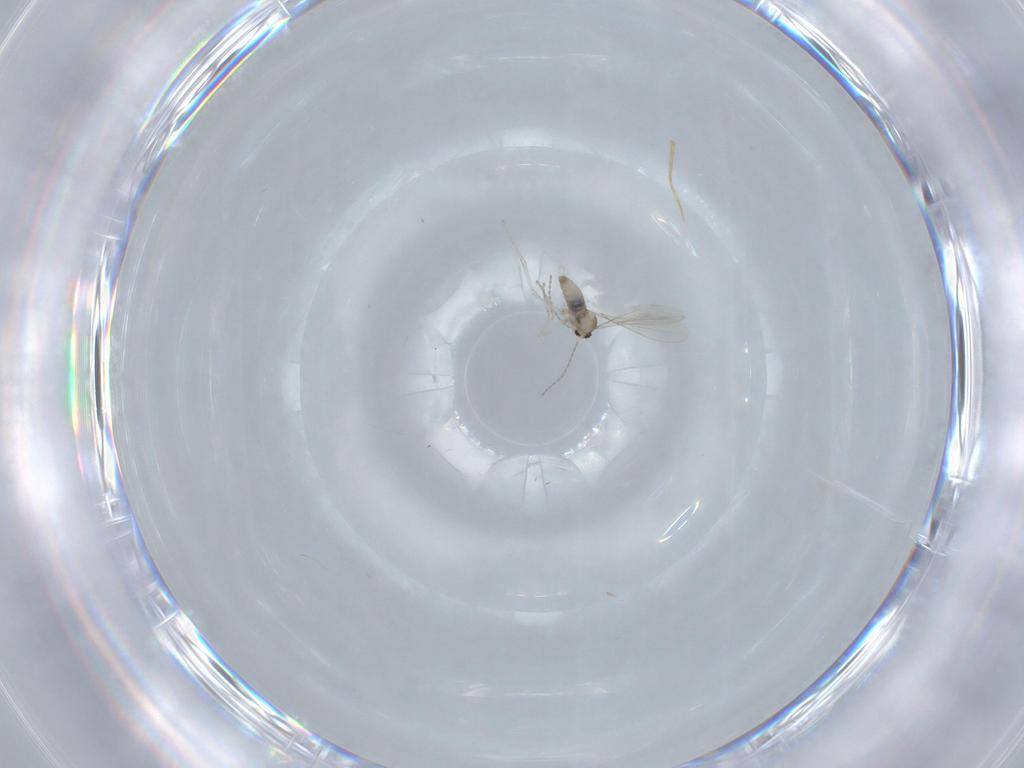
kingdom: Animalia
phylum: Arthropoda
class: Insecta
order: Diptera
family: Cecidomyiidae
